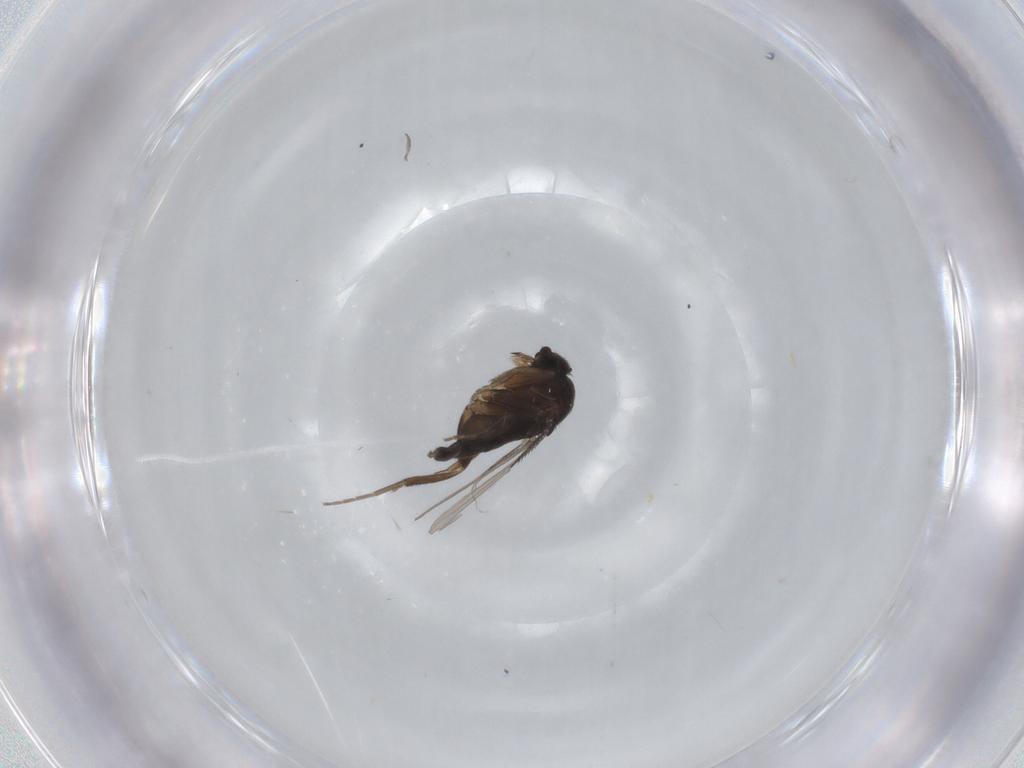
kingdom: Animalia
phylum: Arthropoda
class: Insecta
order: Diptera
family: Phoridae
